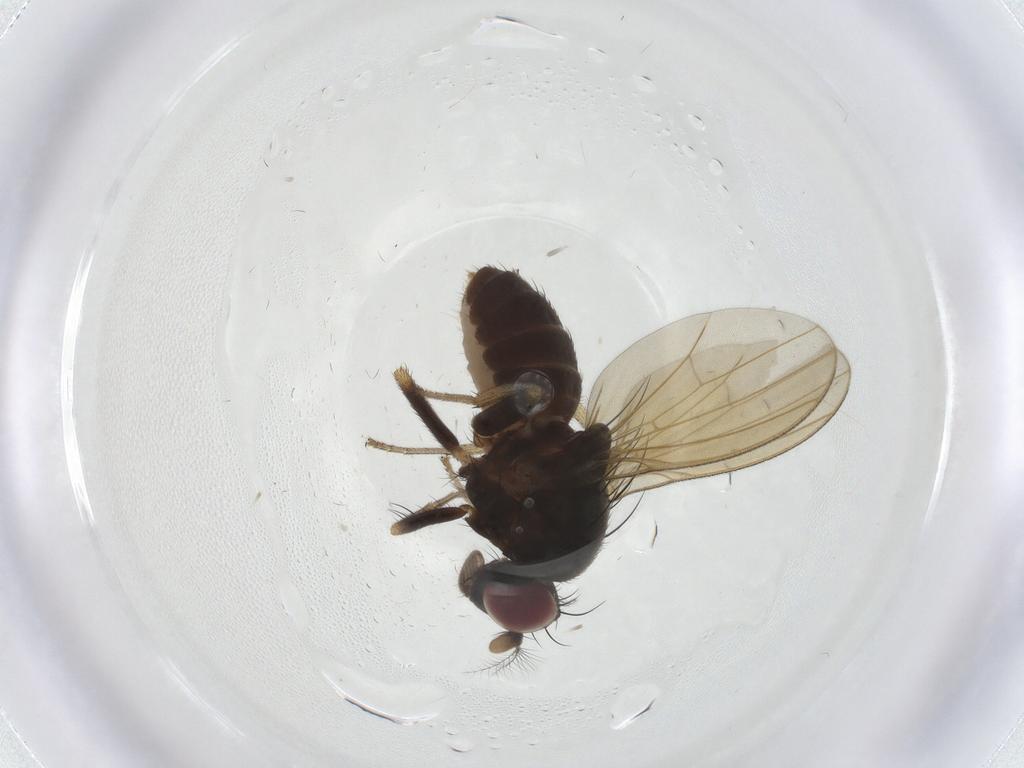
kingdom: Animalia
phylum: Arthropoda
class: Insecta
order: Diptera
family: Lauxaniidae
